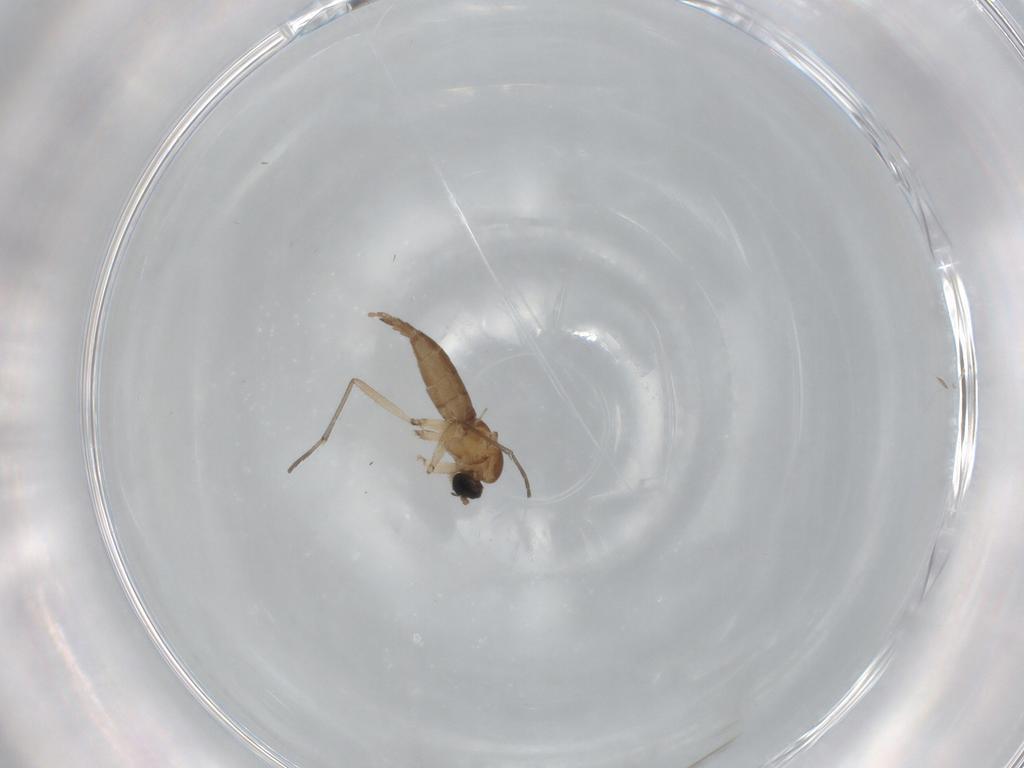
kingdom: Animalia
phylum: Arthropoda
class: Insecta
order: Diptera
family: Sciaridae
